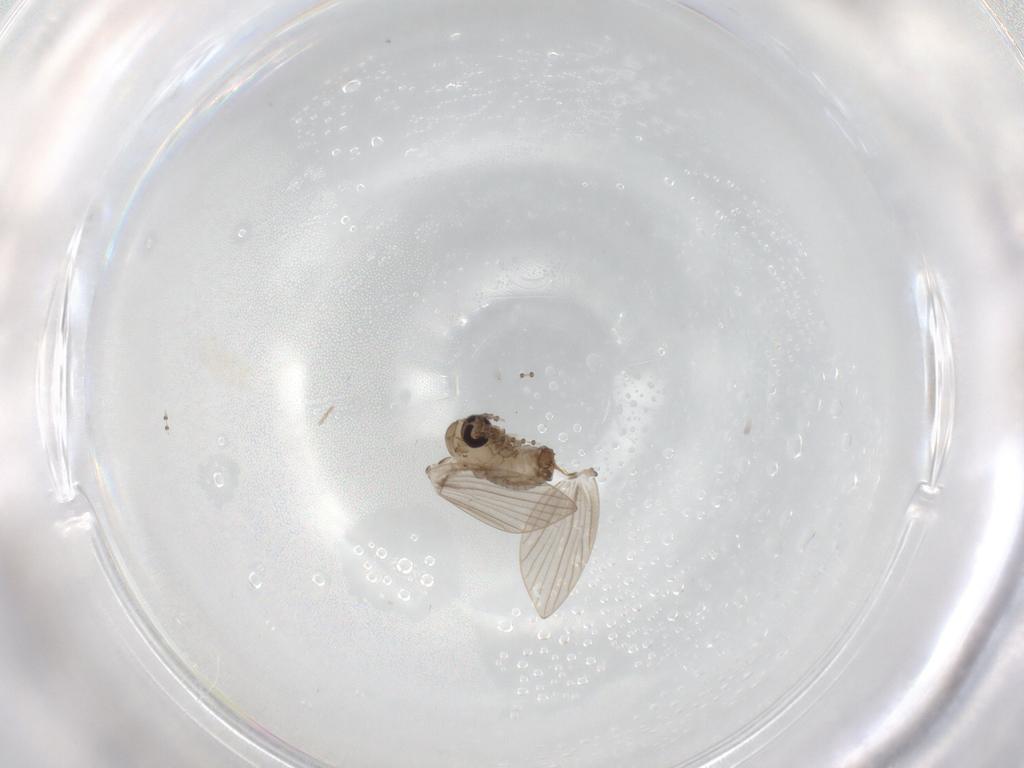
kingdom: Animalia
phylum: Arthropoda
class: Insecta
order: Diptera
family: Psychodidae
